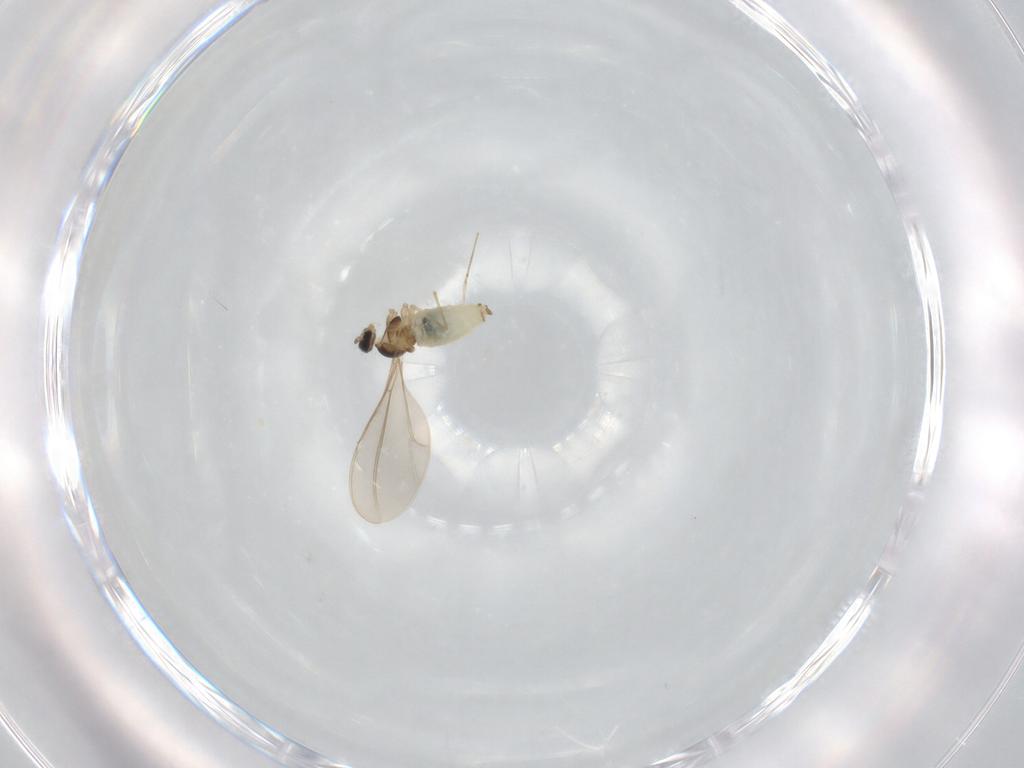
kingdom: Animalia
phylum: Arthropoda
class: Insecta
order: Diptera
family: Cecidomyiidae
